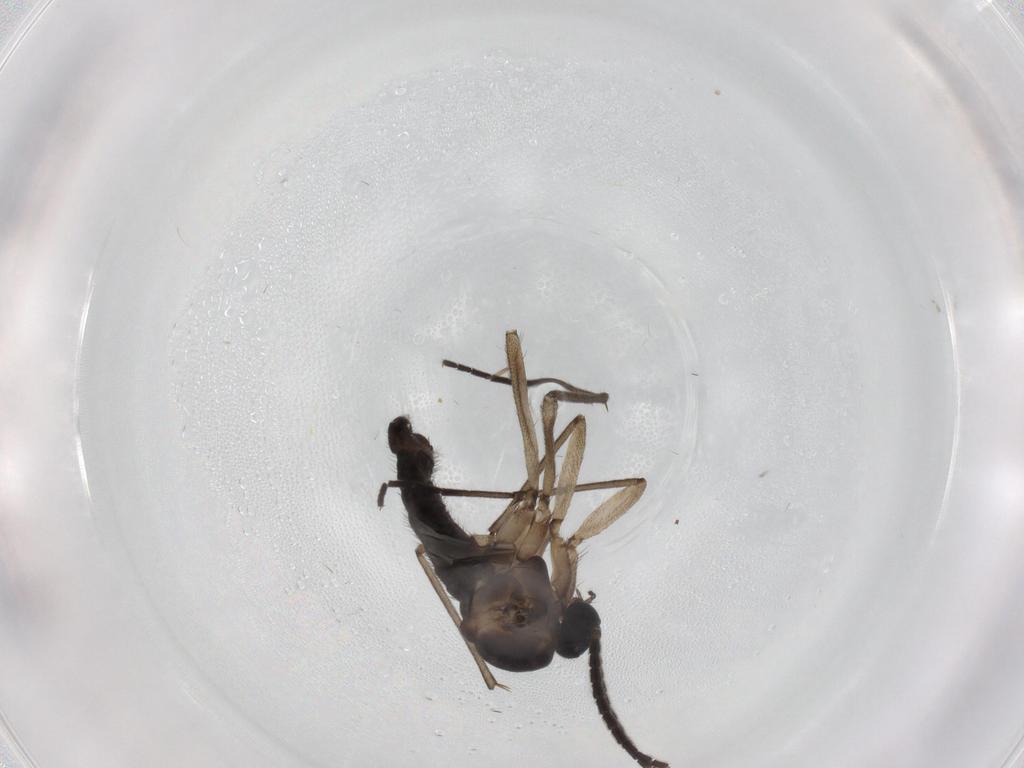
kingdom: Animalia
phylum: Arthropoda
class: Insecta
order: Diptera
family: Sciaridae
